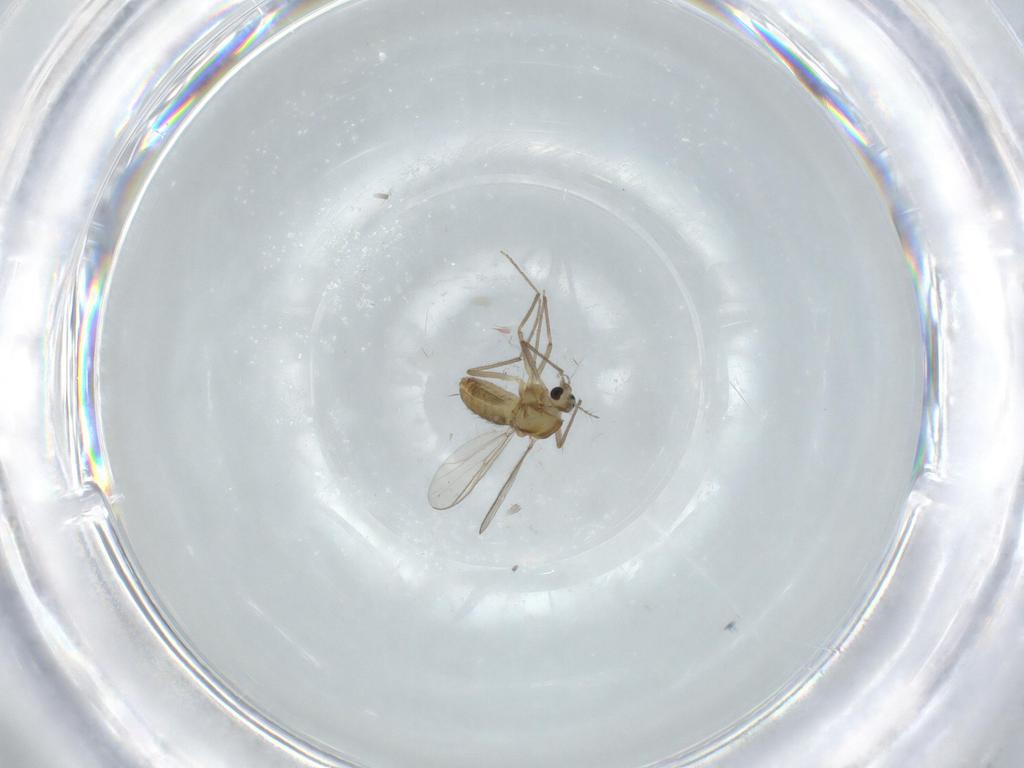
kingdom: Animalia
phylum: Arthropoda
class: Insecta
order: Diptera
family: Chironomidae
